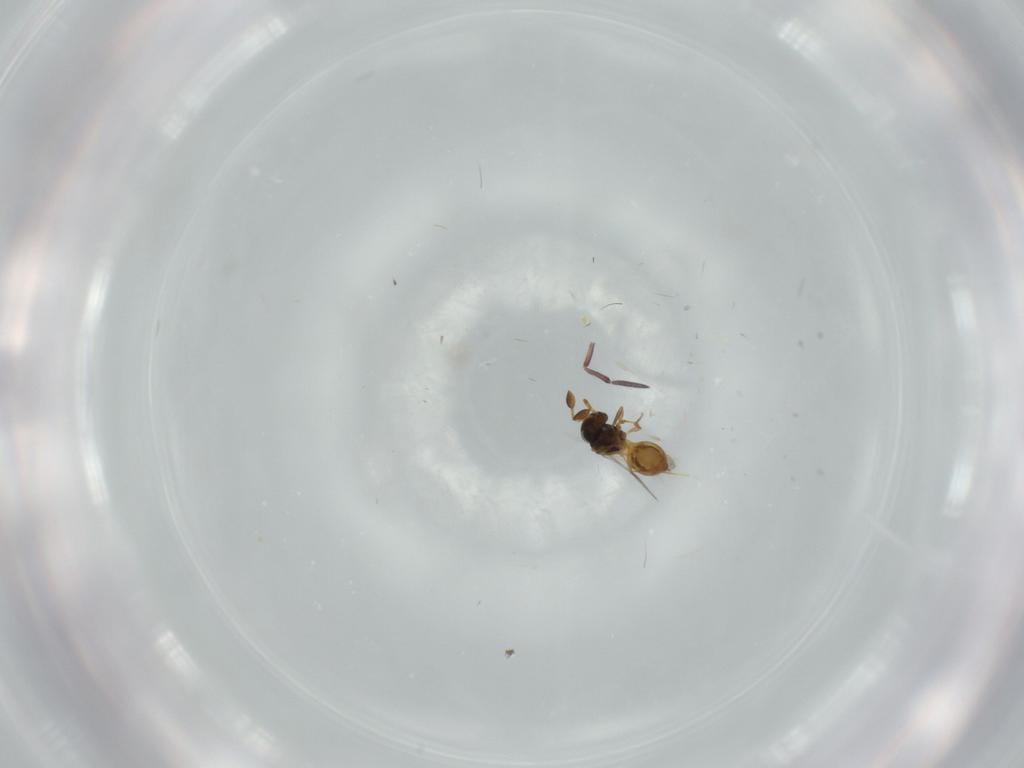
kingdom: Animalia
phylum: Arthropoda
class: Insecta
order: Hymenoptera
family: Scelionidae
